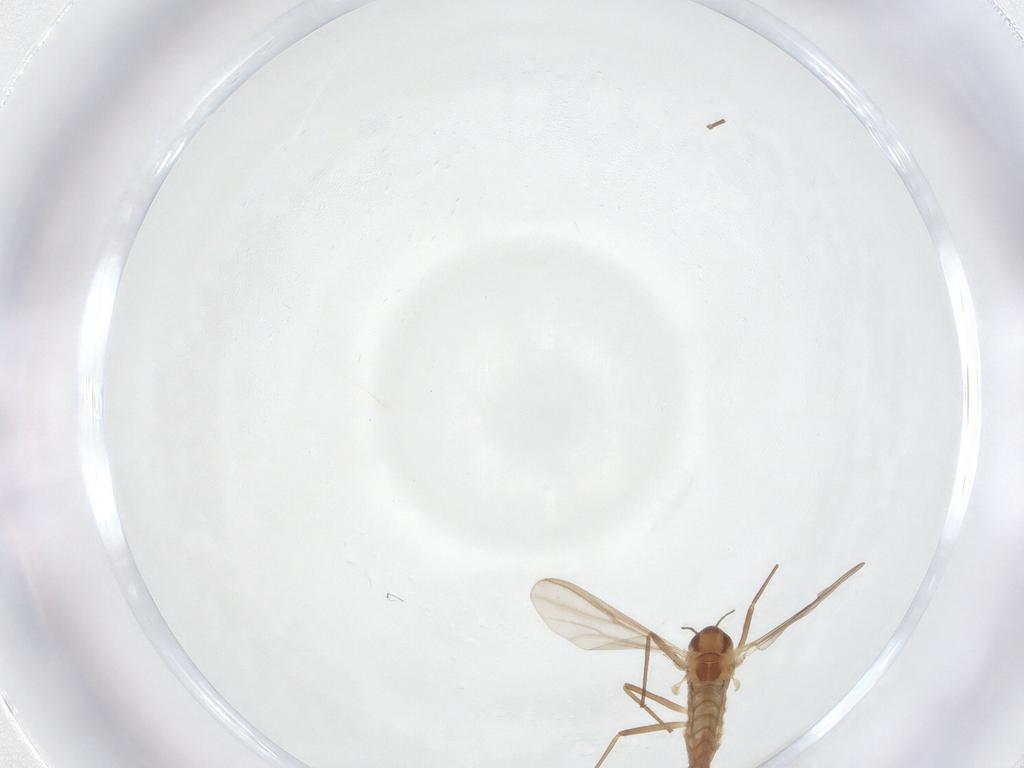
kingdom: Animalia
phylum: Arthropoda
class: Insecta
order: Diptera
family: Chironomidae
